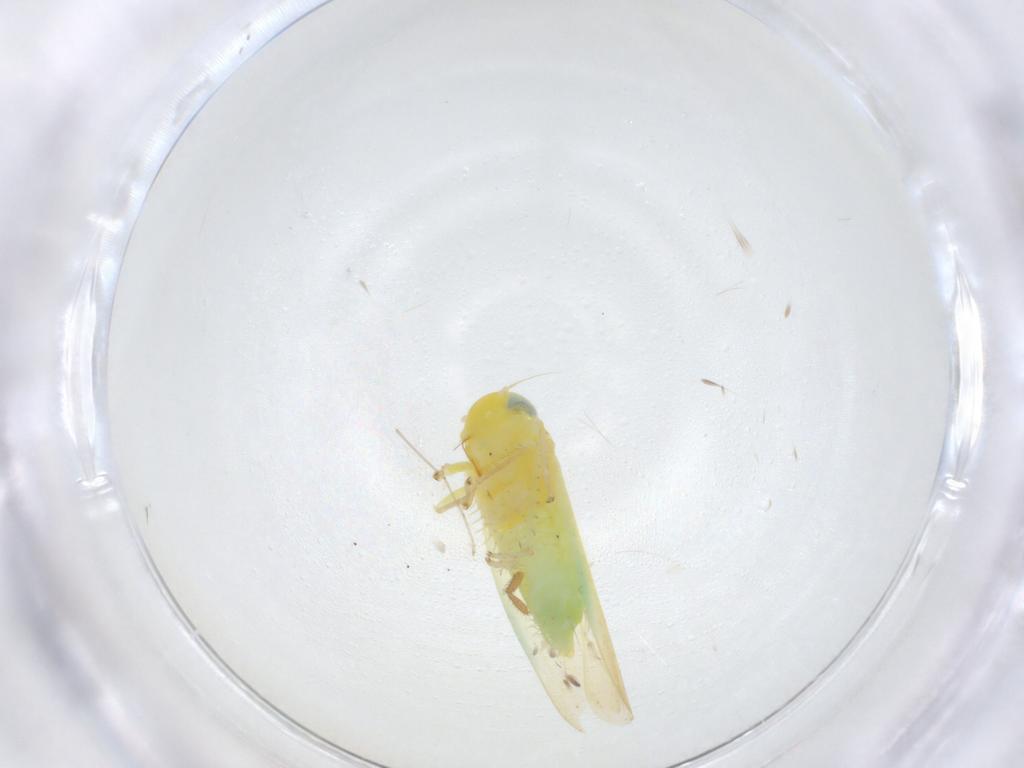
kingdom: Animalia
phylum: Arthropoda
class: Insecta
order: Hemiptera
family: Cicadellidae
